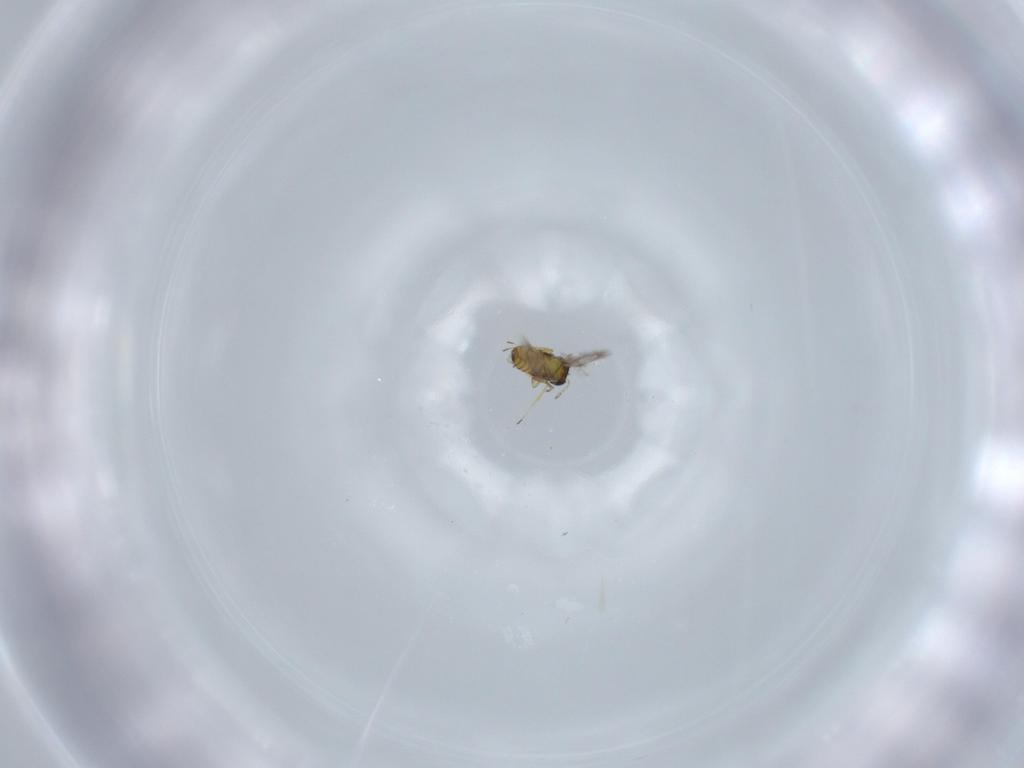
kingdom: Animalia
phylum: Arthropoda
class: Insecta
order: Hymenoptera
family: Trichogrammatidae
